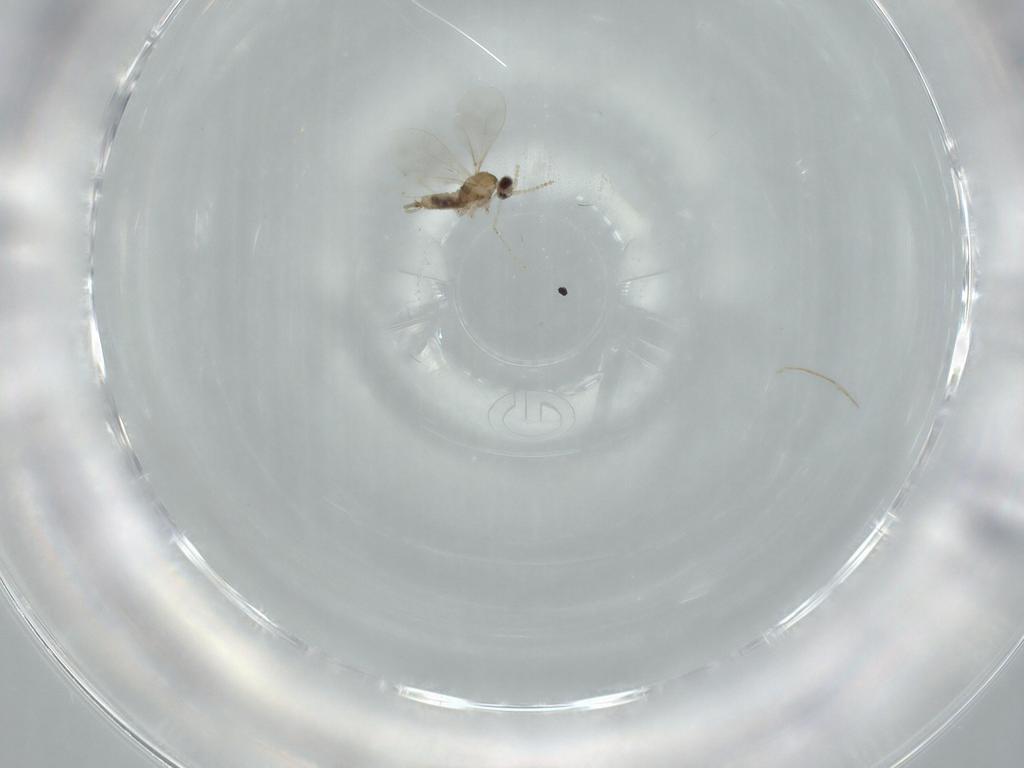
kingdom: Animalia
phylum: Arthropoda
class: Insecta
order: Diptera
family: Cecidomyiidae
